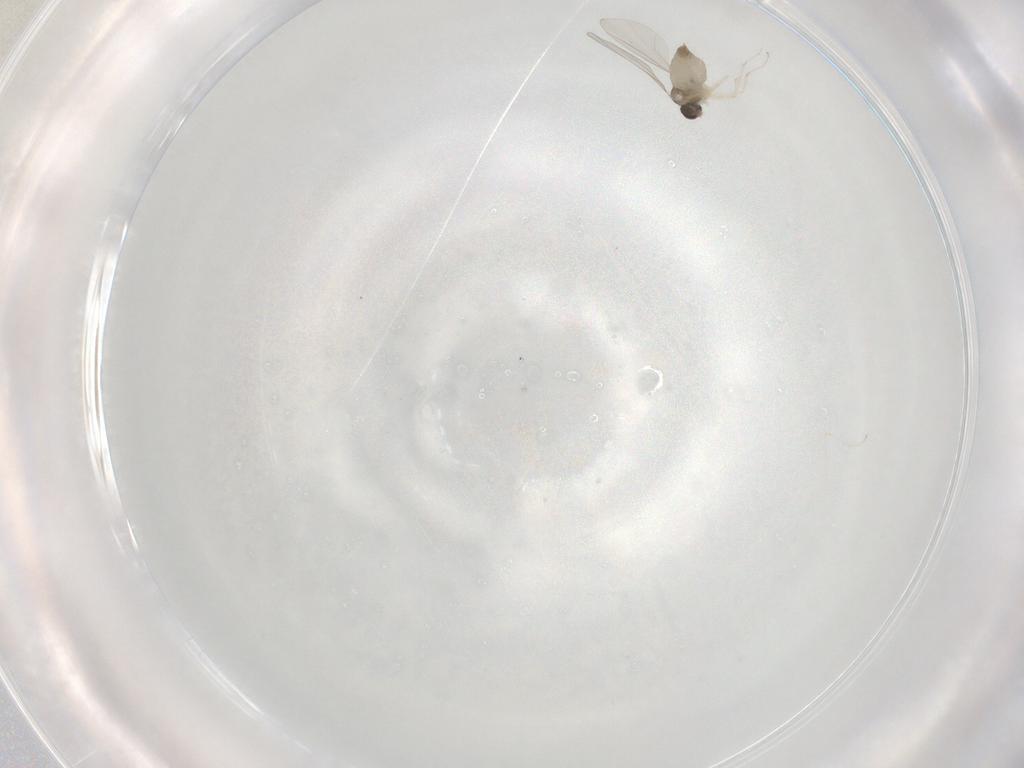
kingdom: Animalia
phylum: Arthropoda
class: Insecta
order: Diptera
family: Cecidomyiidae
